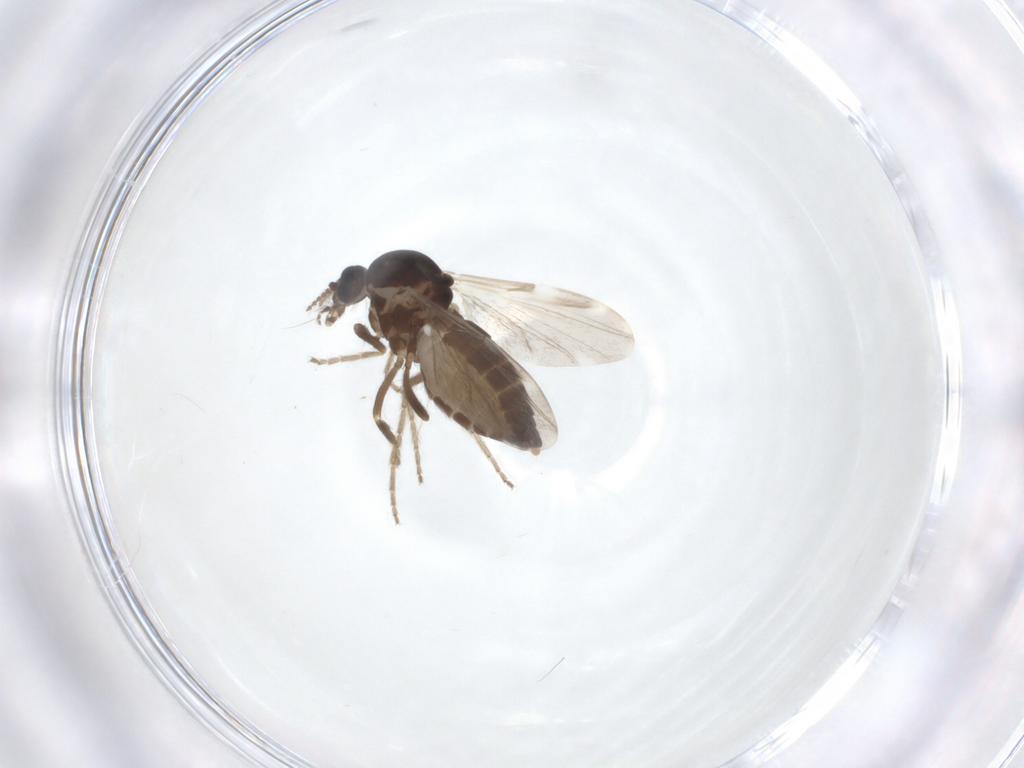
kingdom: Animalia
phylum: Arthropoda
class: Insecta
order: Diptera
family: Ceratopogonidae
